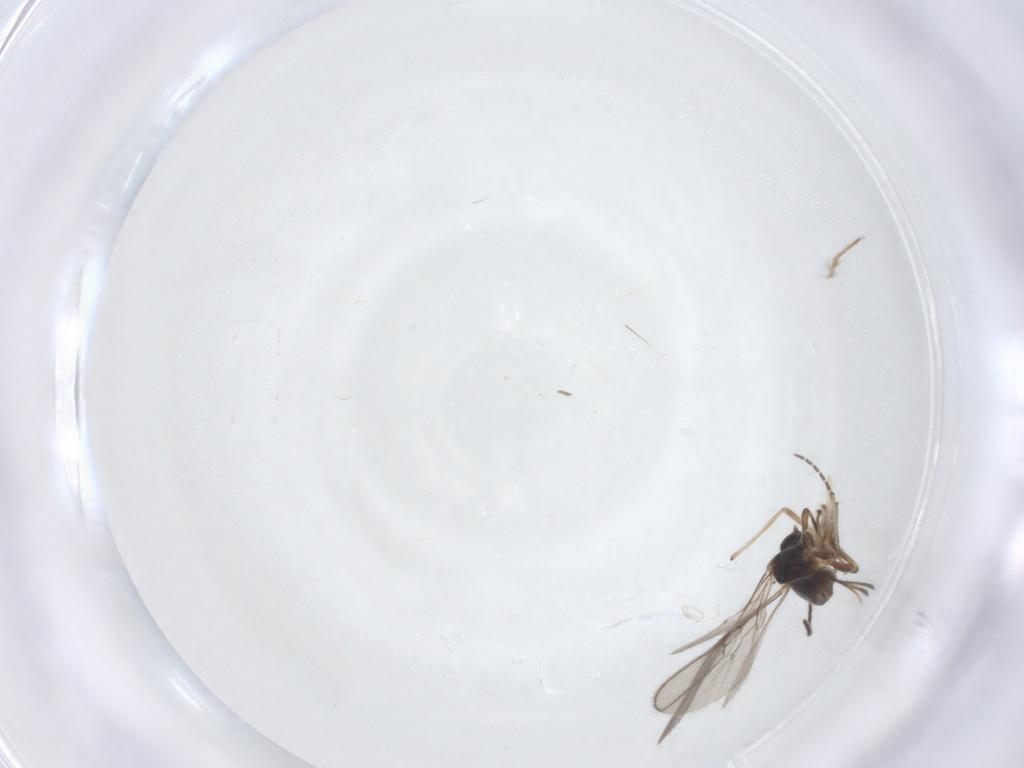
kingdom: Animalia
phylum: Arthropoda
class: Insecta
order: Hymenoptera
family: Braconidae
